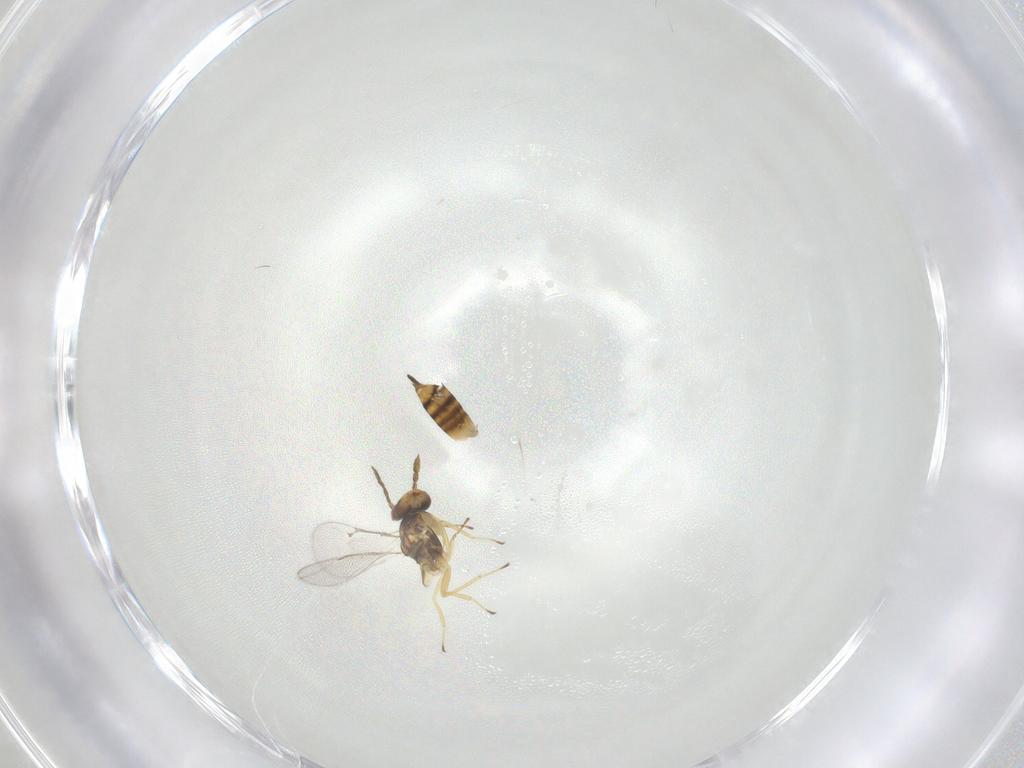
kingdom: Animalia
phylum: Arthropoda
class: Insecta
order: Hymenoptera
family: Eulophidae
